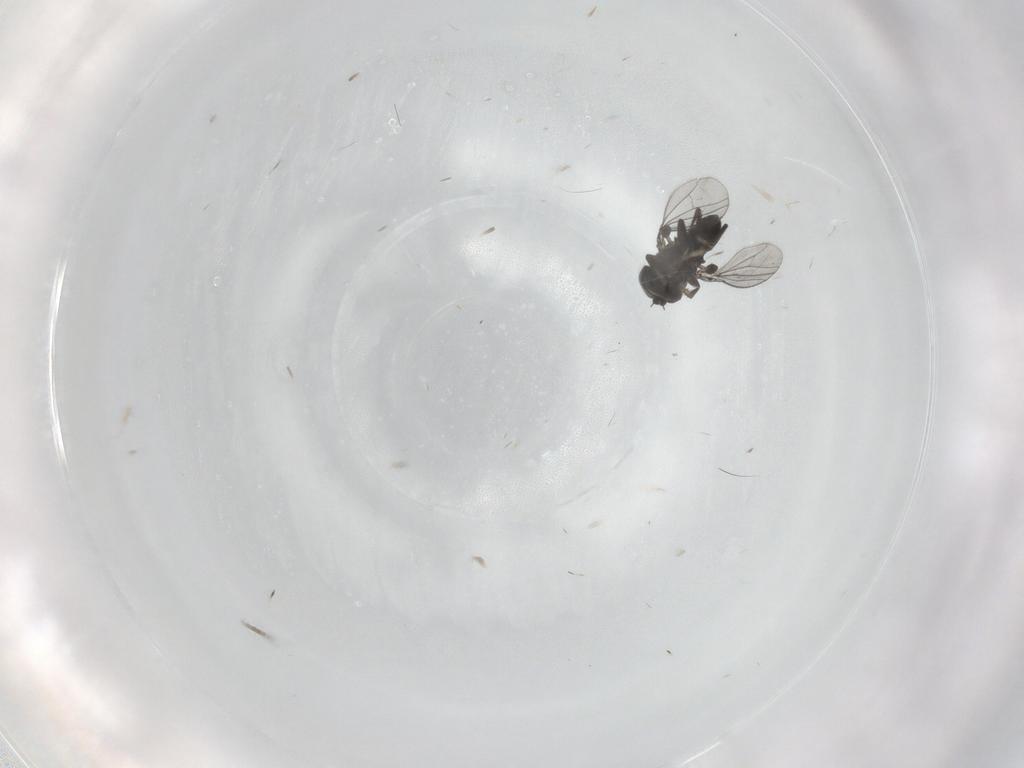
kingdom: Animalia
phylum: Arthropoda
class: Insecta
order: Diptera
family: Dolichopodidae
